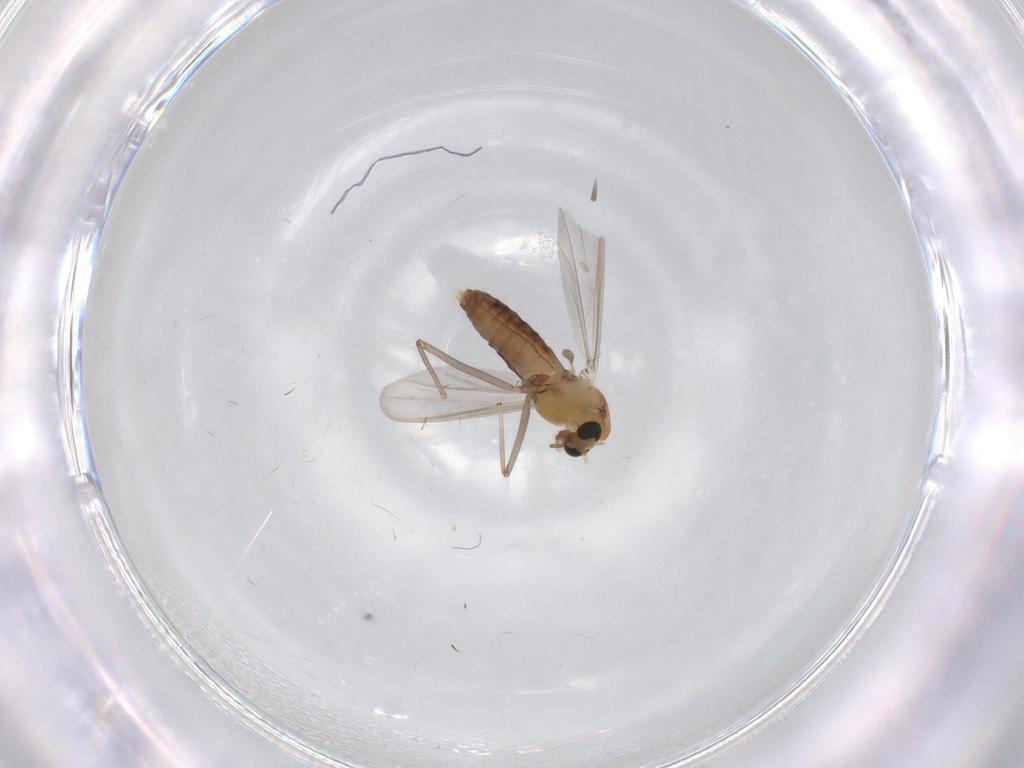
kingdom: Animalia
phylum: Arthropoda
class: Insecta
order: Diptera
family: Chironomidae
